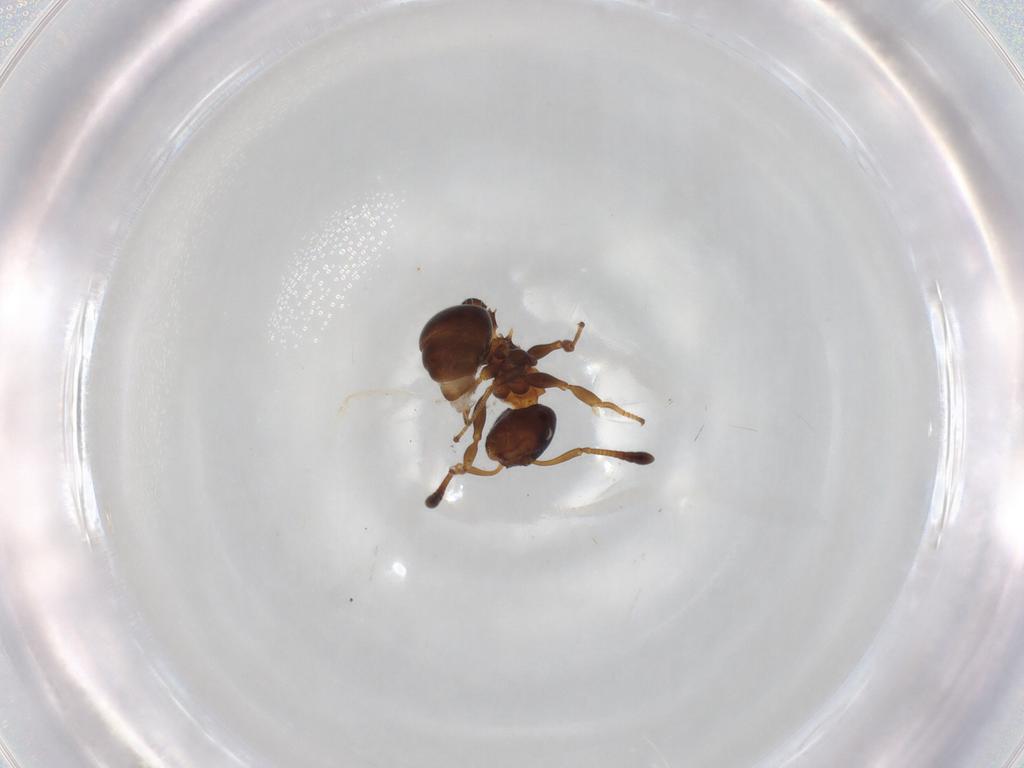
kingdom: Animalia
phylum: Arthropoda
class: Insecta
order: Hymenoptera
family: Formicidae
